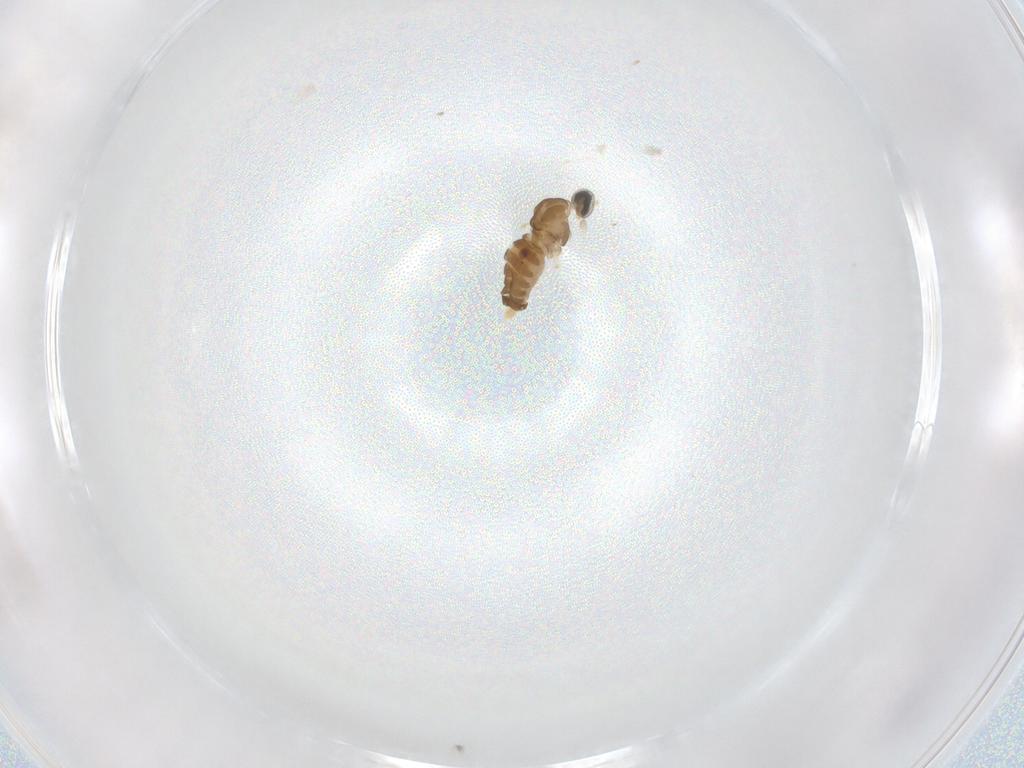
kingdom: Animalia
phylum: Arthropoda
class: Insecta
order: Diptera
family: Cecidomyiidae
